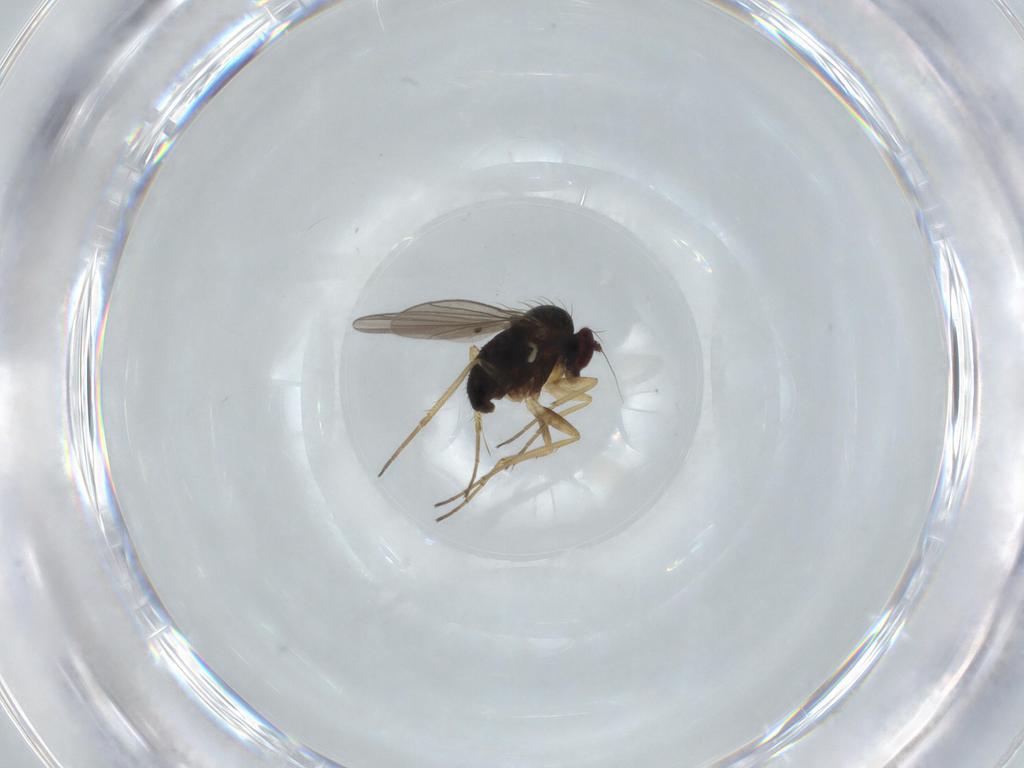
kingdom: Animalia
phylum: Arthropoda
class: Insecta
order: Diptera
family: Dolichopodidae
